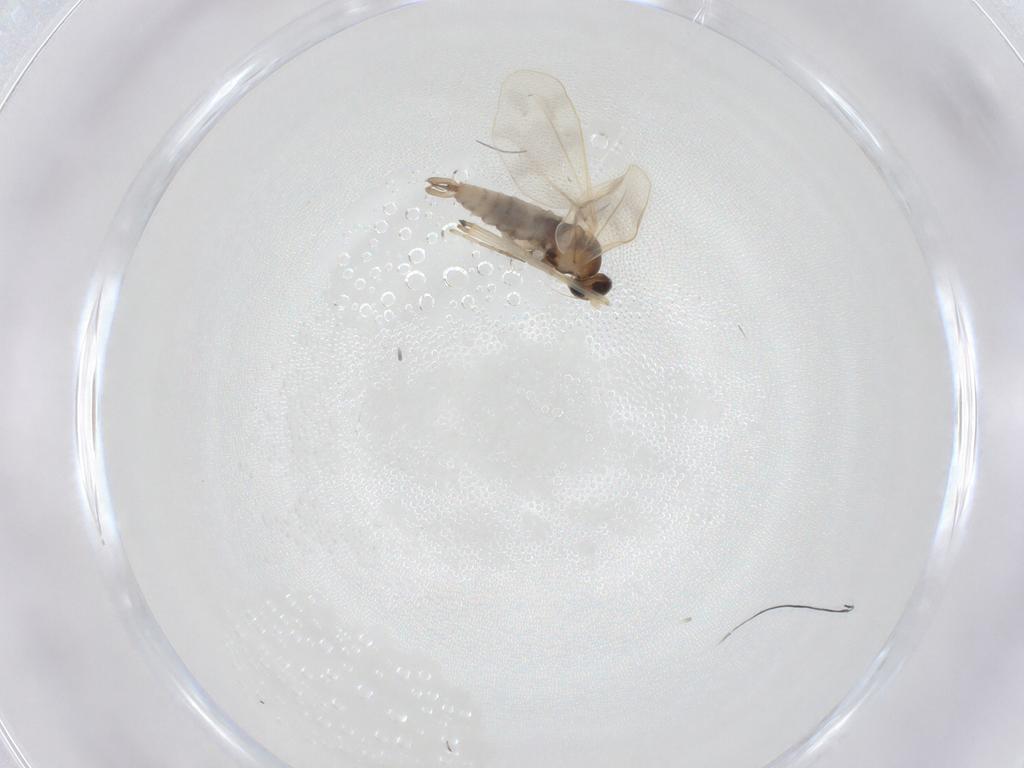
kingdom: Animalia
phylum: Arthropoda
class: Insecta
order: Diptera
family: Cecidomyiidae
